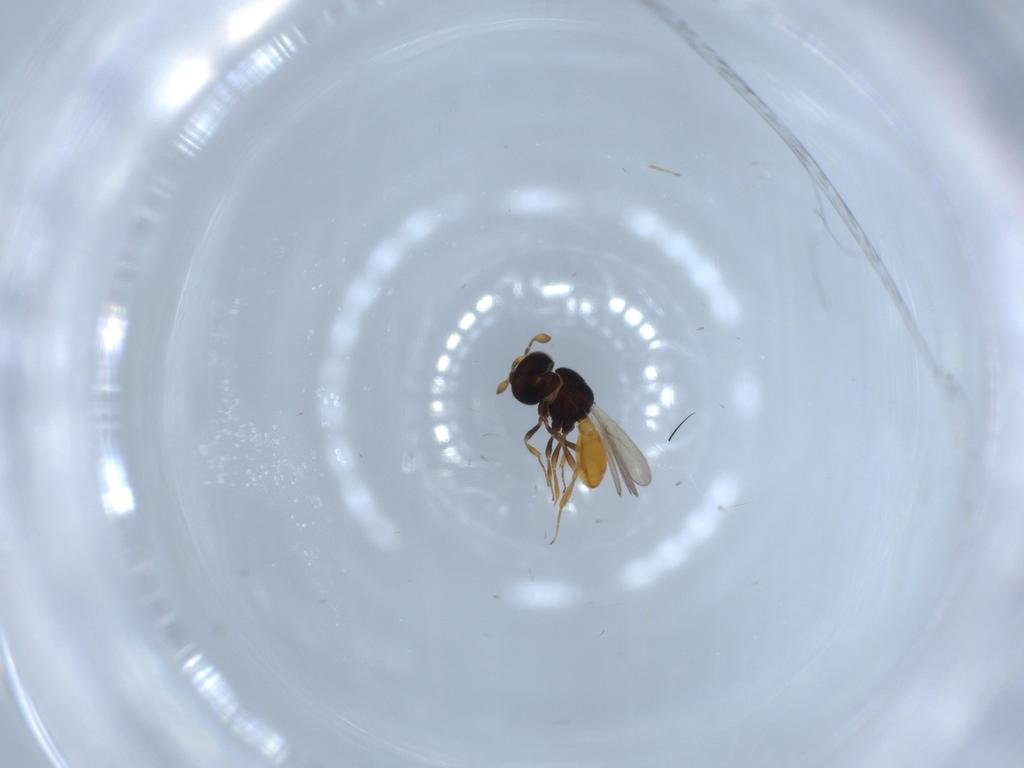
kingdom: Animalia
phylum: Arthropoda
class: Insecta
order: Hymenoptera
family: Scelionidae
